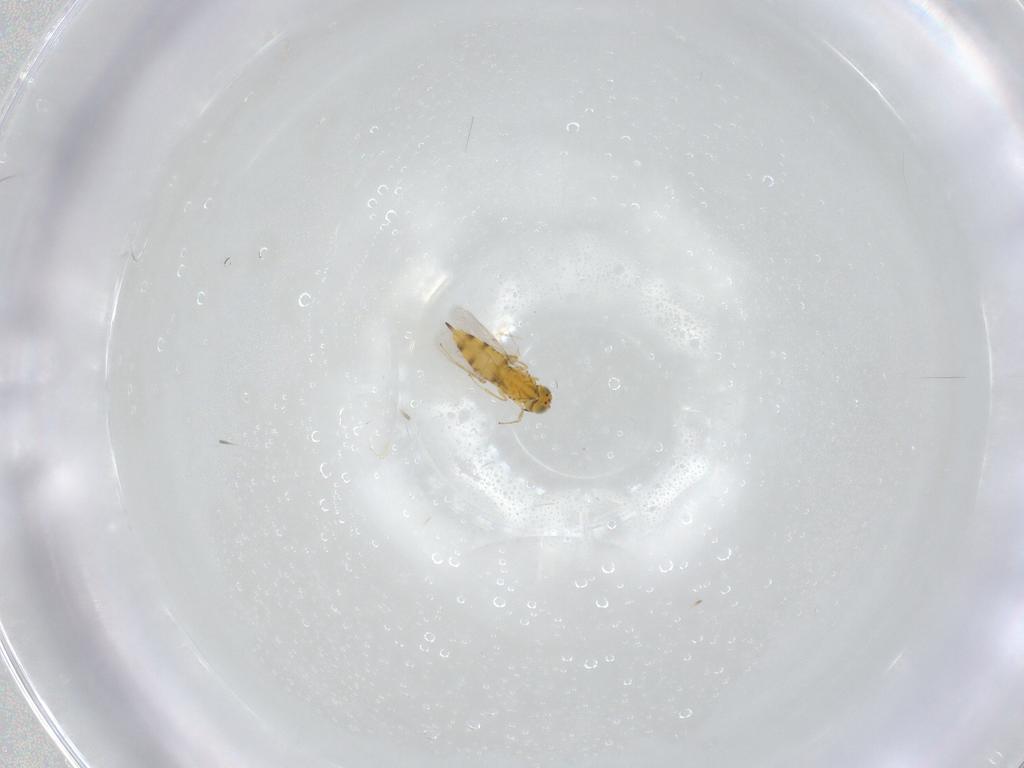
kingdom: Animalia
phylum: Arthropoda
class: Insecta
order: Hymenoptera
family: Aphelinidae
